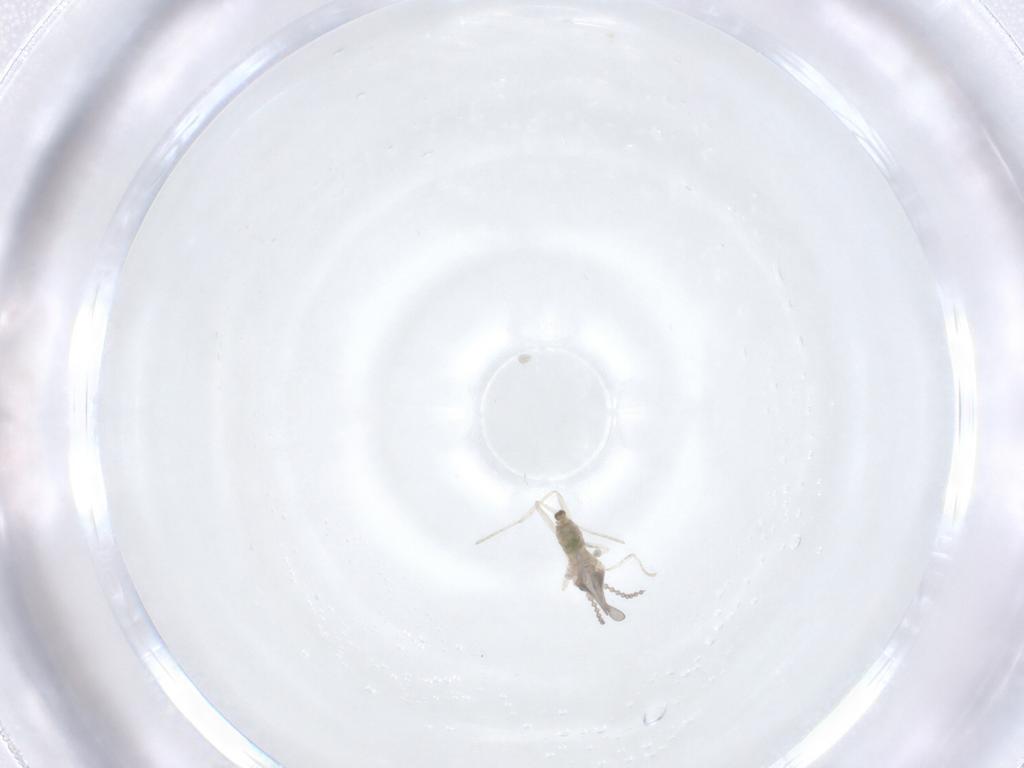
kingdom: Animalia
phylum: Arthropoda
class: Insecta
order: Diptera
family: Cecidomyiidae
